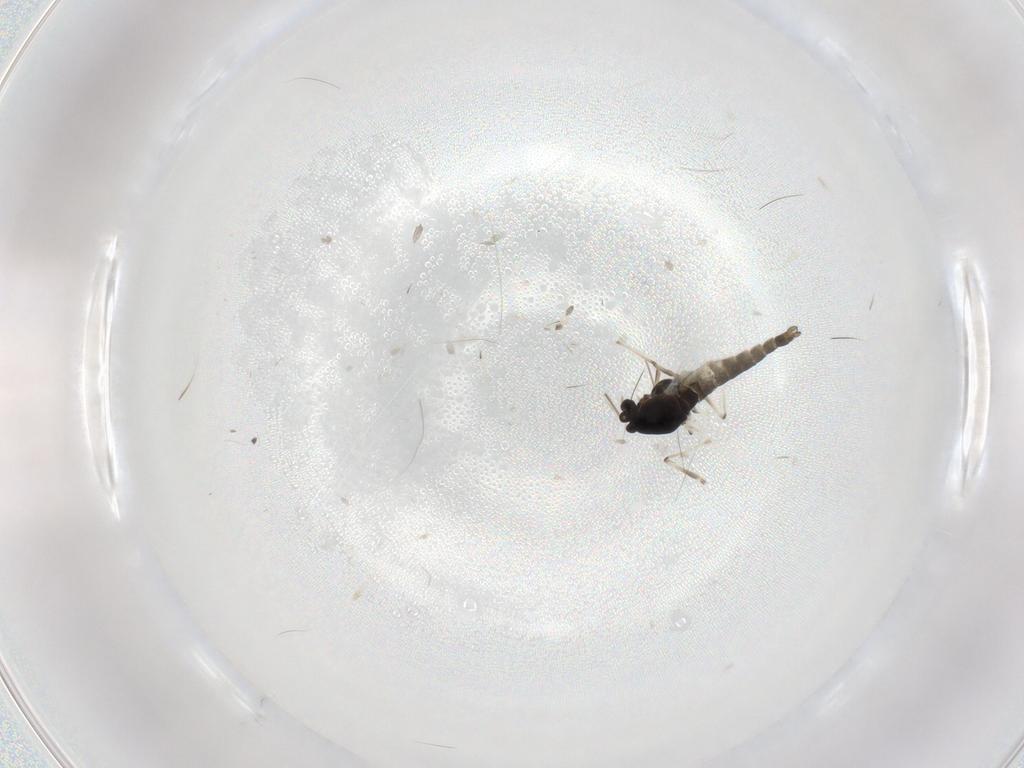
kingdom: Animalia
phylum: Arthropoda
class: Insecta
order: Diptera
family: Chironomidae
